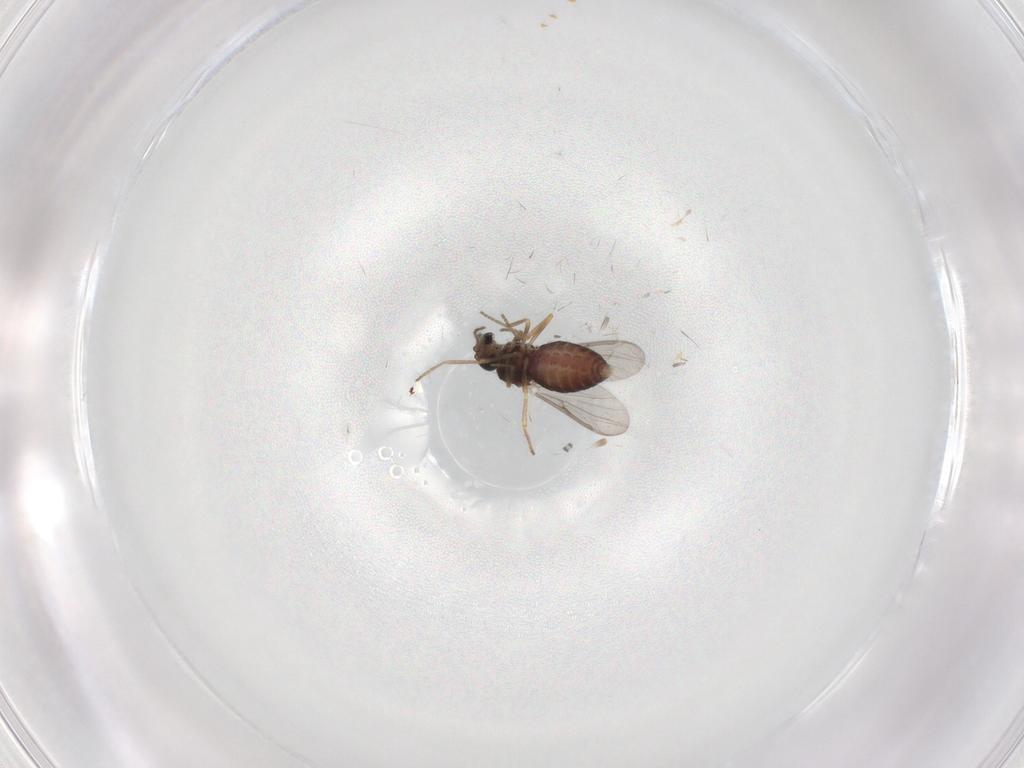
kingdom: Animalia
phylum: Arthropoda
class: Insecta
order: Diptera
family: Ceratopogonidae
